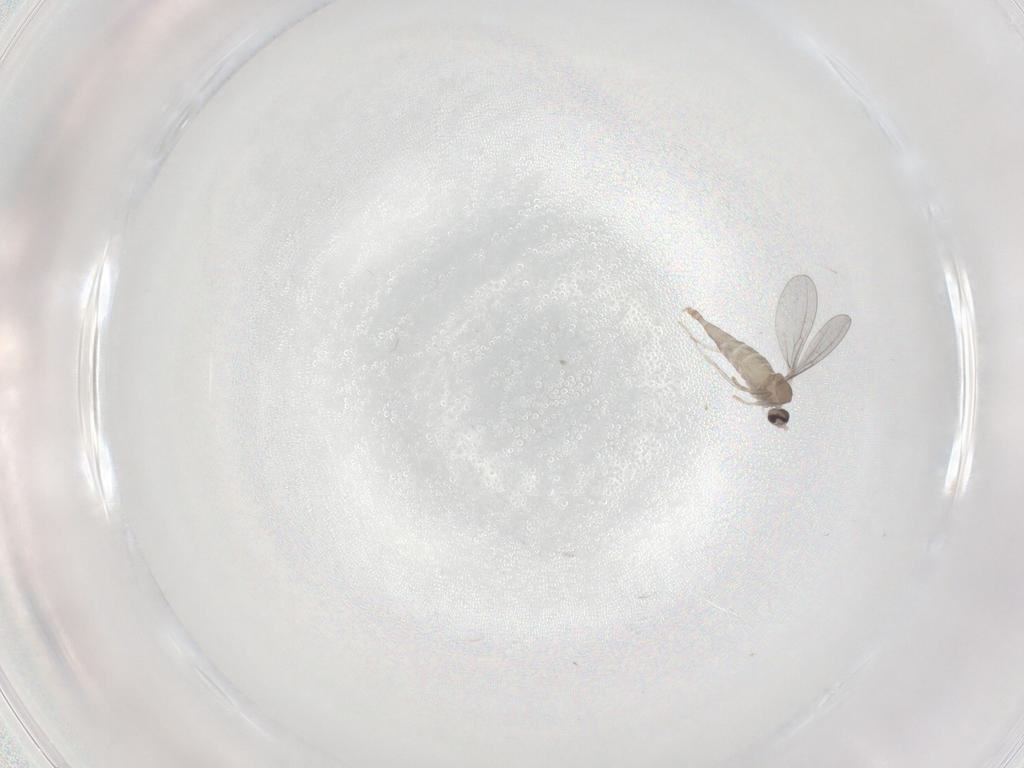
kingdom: Animalia
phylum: Arthropoda
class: Insecta
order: Diptera
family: Cecidomyiidae
